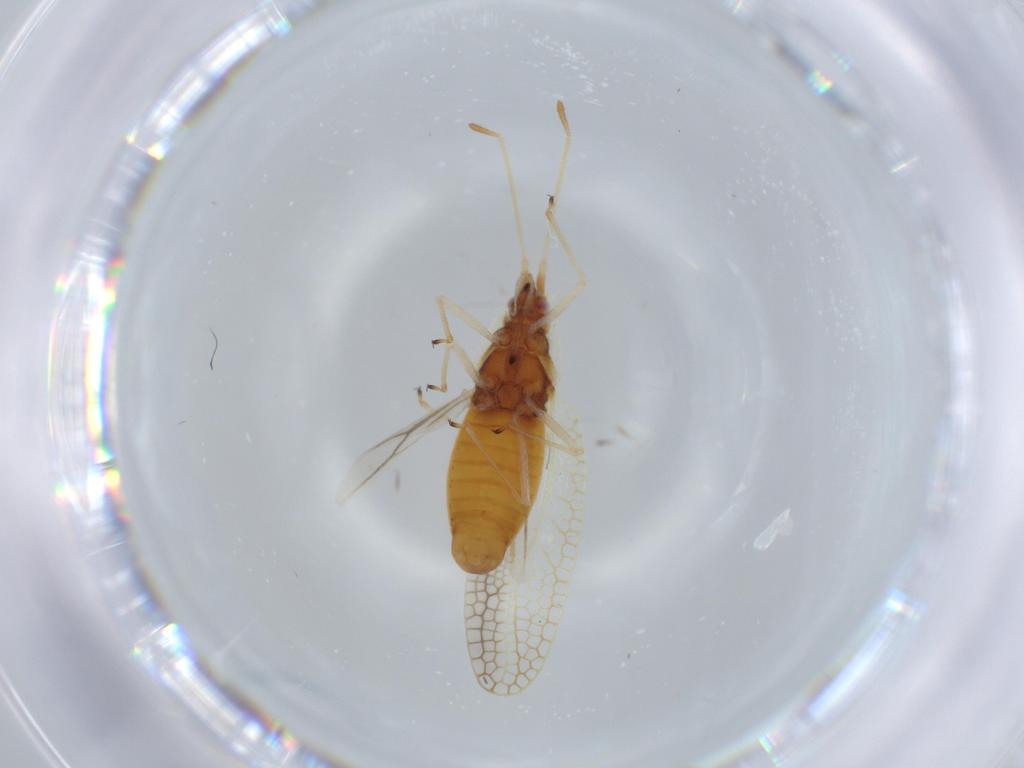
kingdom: Animalia
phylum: Arthropoda
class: Insecta
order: Hemiptera
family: Tingidae
